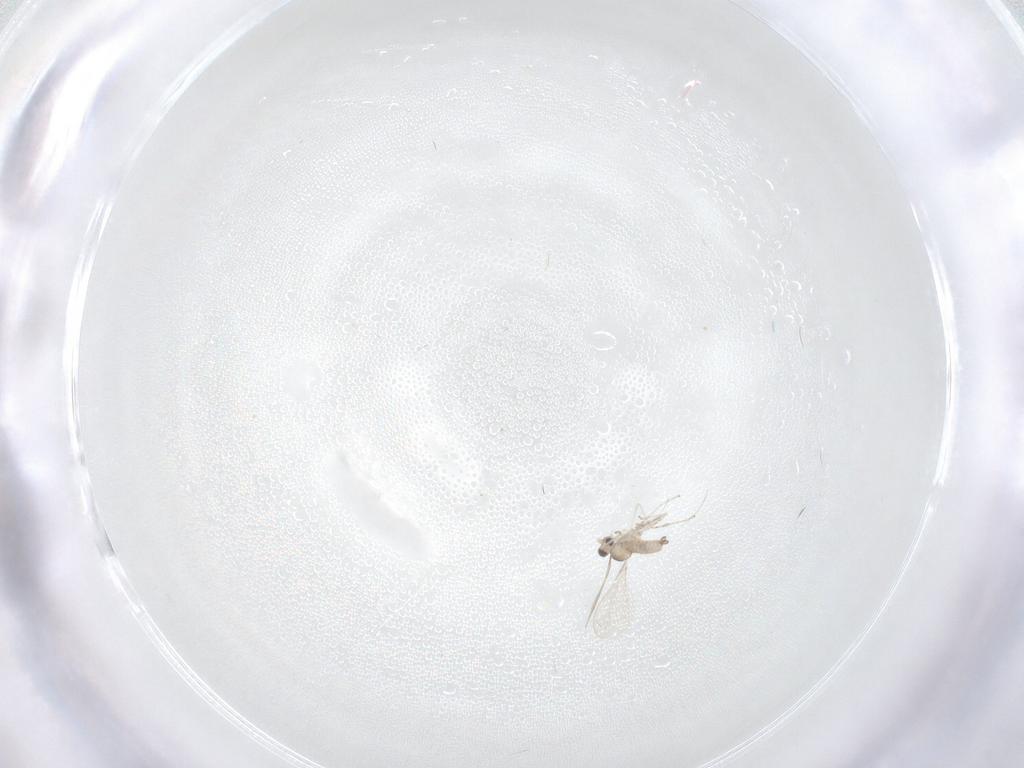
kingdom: Animalia
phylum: Arthropoda
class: Insecta
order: Diptera
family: Cecidomyiidae
